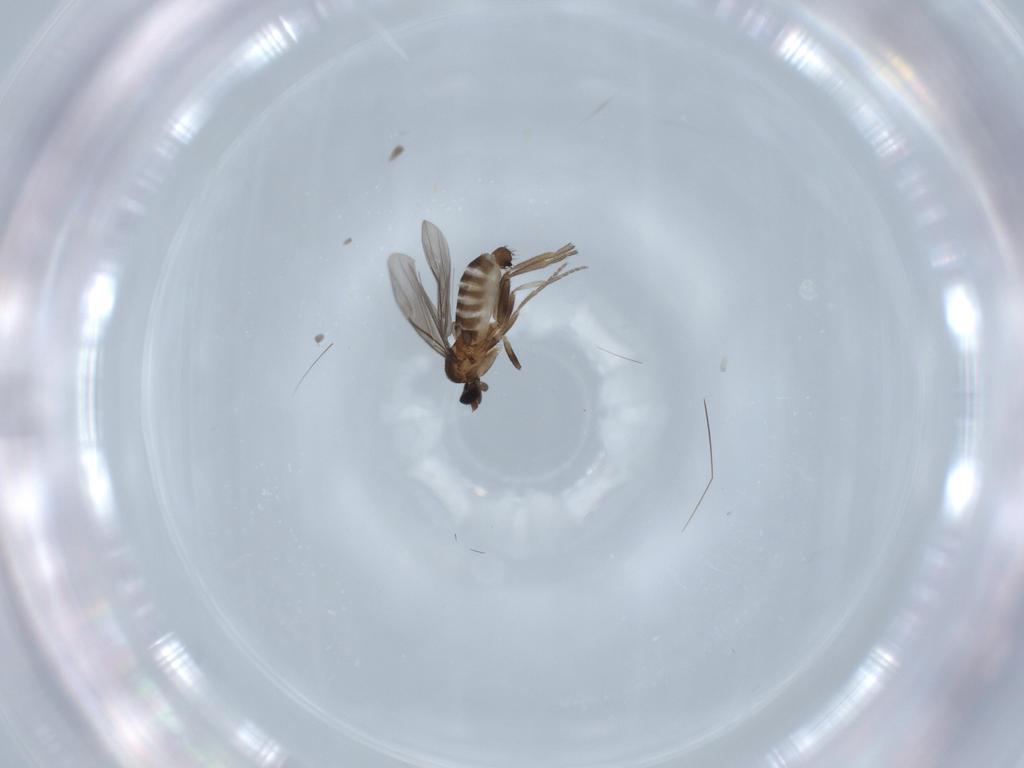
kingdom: Animalia
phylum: Arthropoda
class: Insecta
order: Diptera
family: Phoridae
